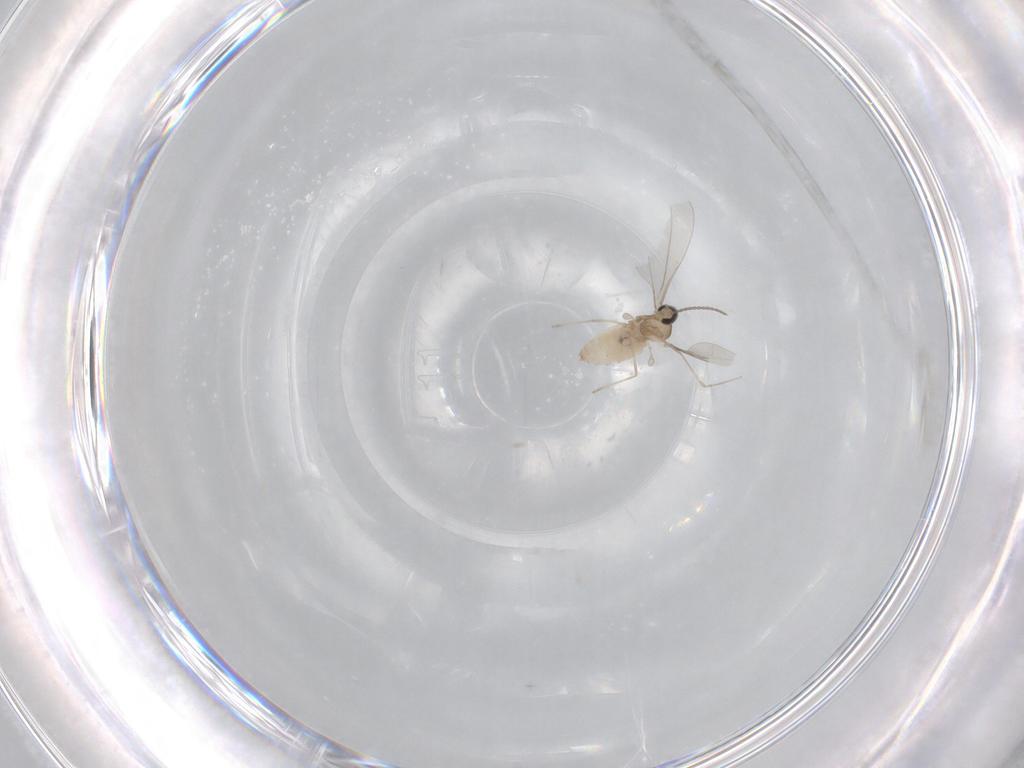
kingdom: Animalia
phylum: Arthropoda
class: Insecta
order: Diptera
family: Cecidomyiidae
